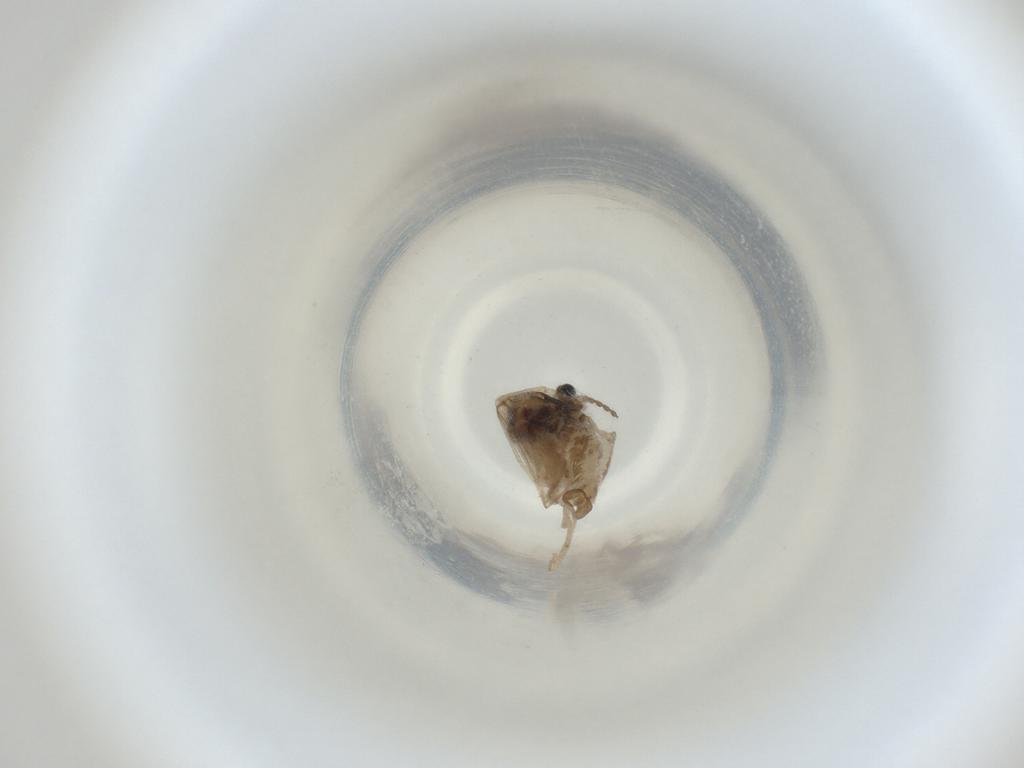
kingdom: Animalia
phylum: Arthropoda
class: Insecta
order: Diptera
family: Cecidomyiidae
